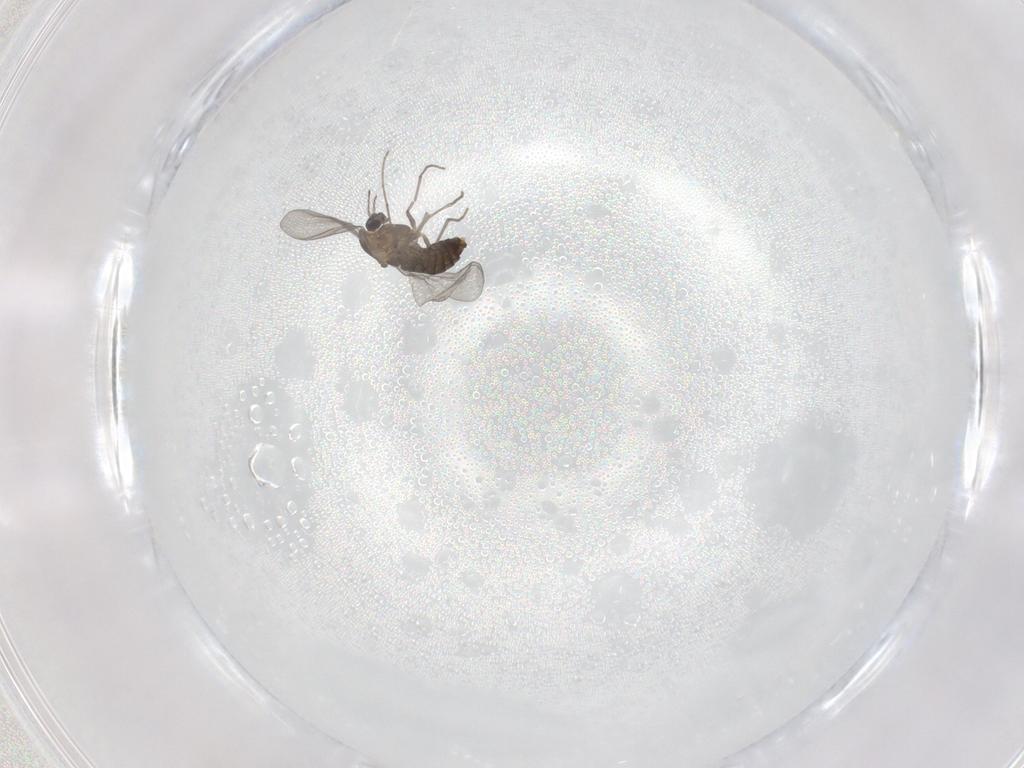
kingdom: Animalia
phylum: Arthropoda
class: Insecta
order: Diptera
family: Chironomidae
